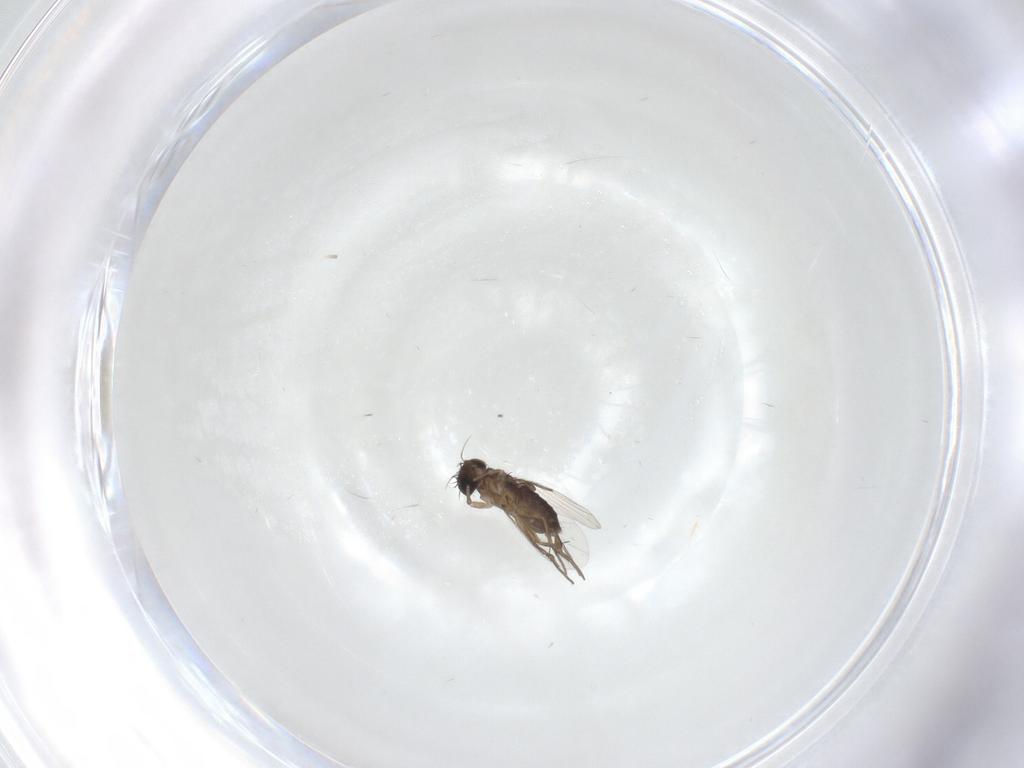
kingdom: Animalia
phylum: Arthropoda
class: Insecta
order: Diptera
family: Phoridae
